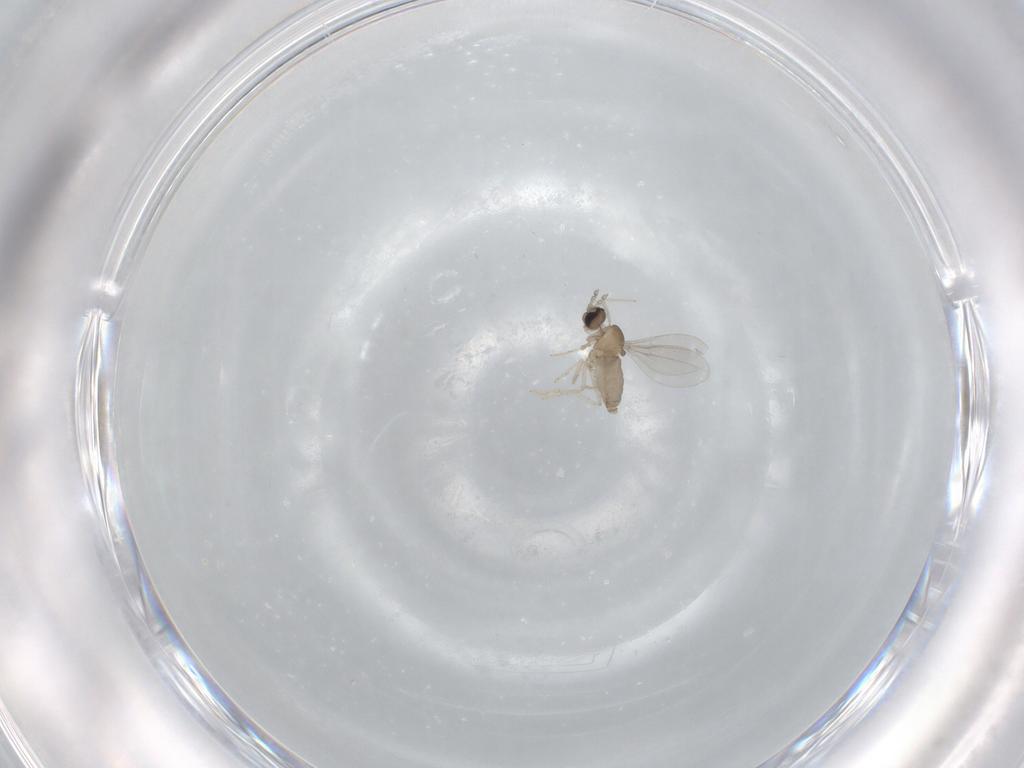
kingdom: Animalia
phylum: Arthropoda
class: Insecta
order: Diptera
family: Cecidomyiidae
